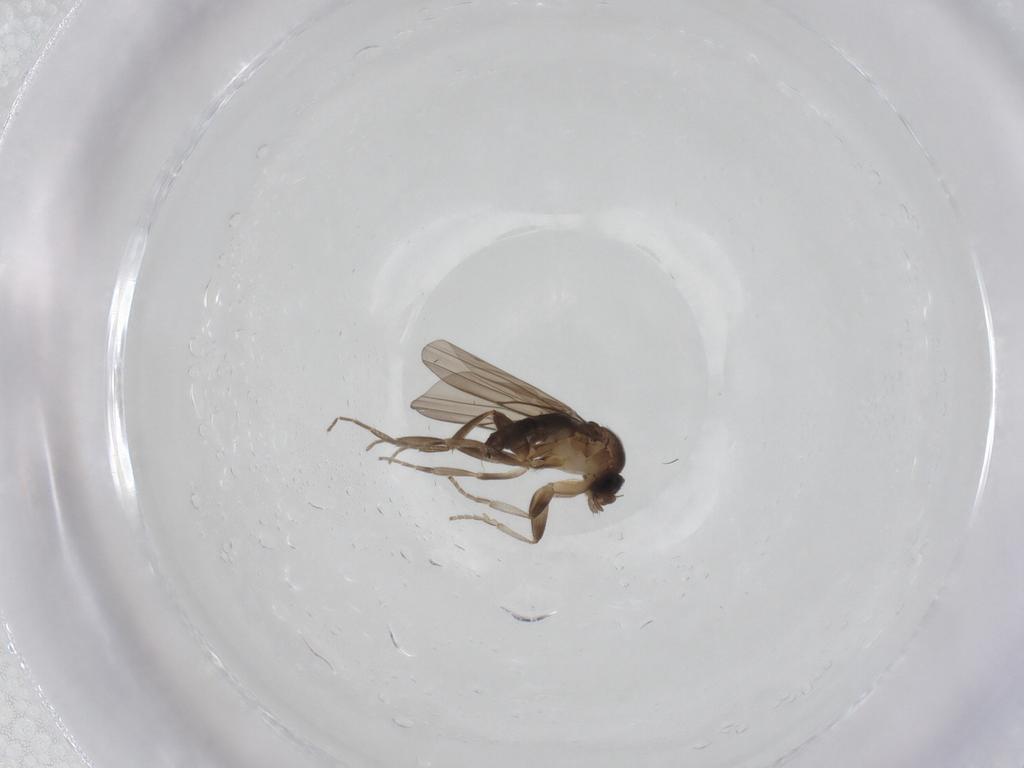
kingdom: Animalia
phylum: Arthropoda
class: Insecta
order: Diptera
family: Phoridae
